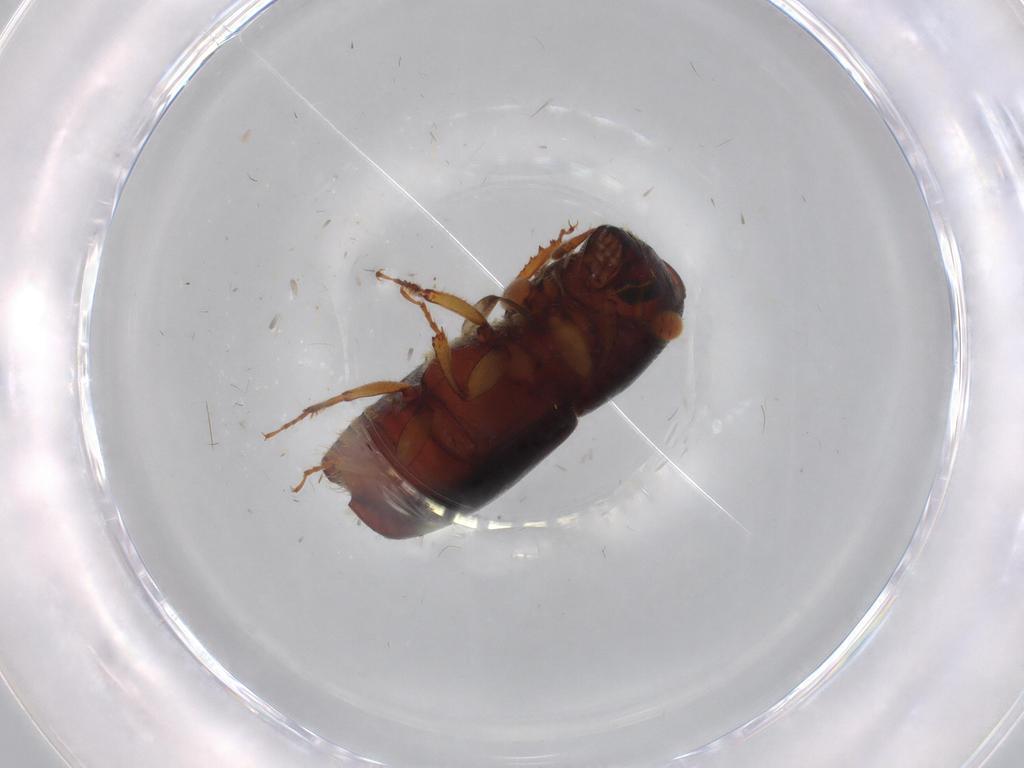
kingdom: Animalia
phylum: Arthropoda
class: Insecta
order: Coleoptera
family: Curculionidae
